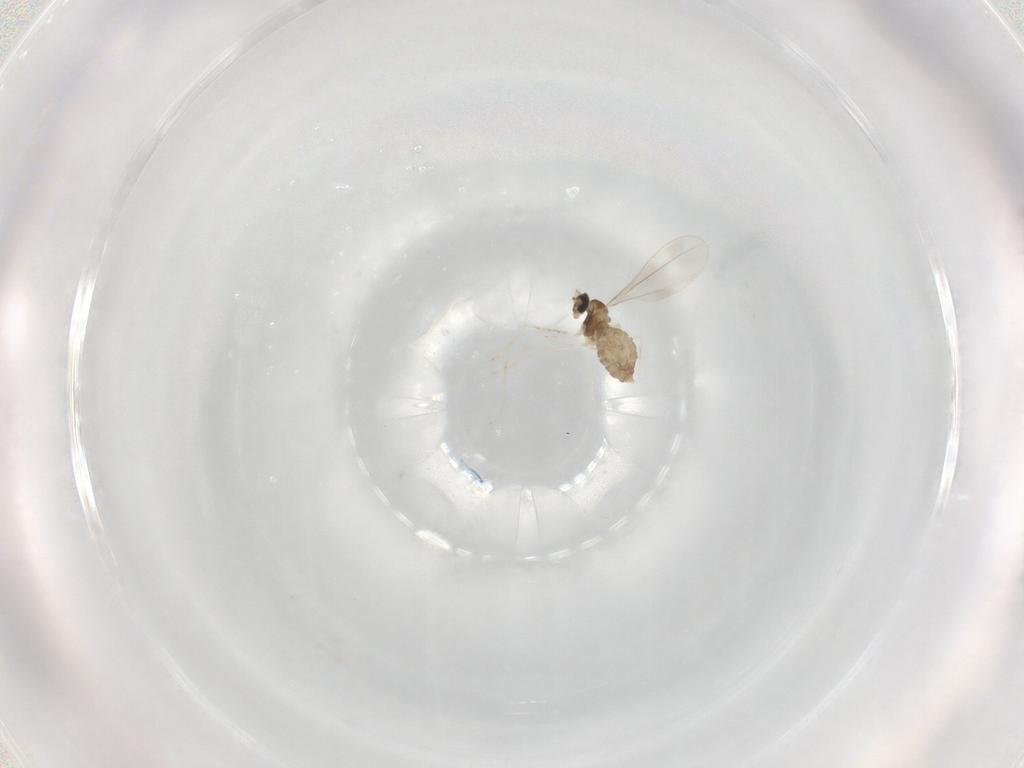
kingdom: Animalia
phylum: Arthropoda
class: Insecta
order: Diptera
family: Cecidomyiidae
